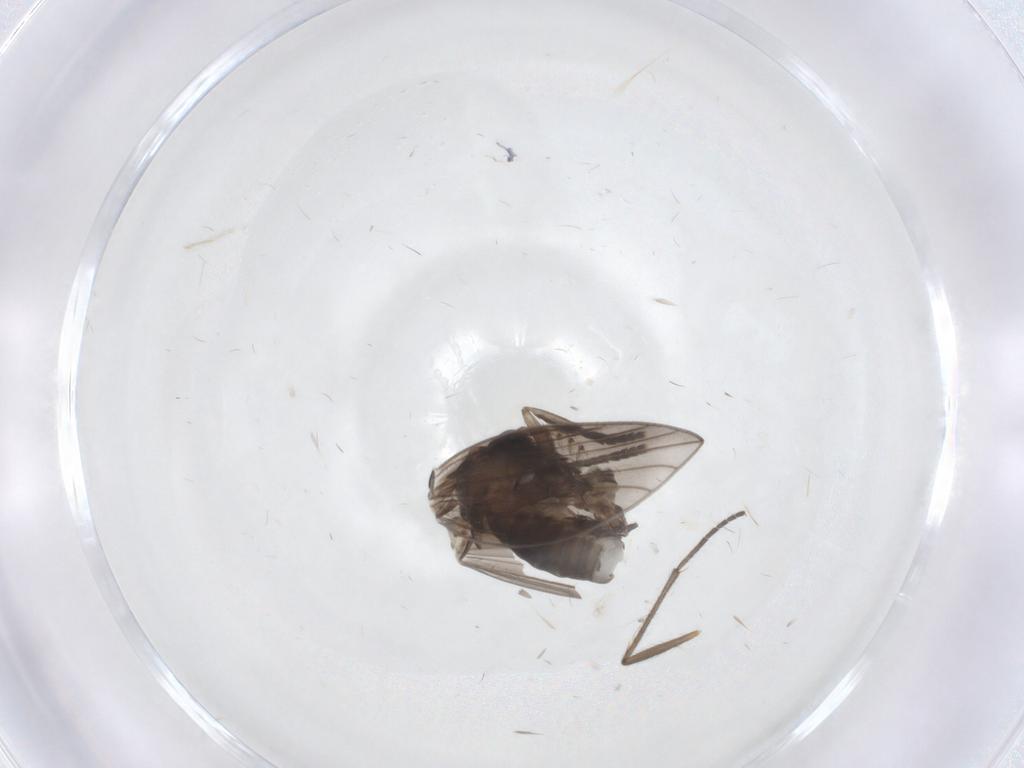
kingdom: Animalia
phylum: Arthropoda
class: Insecta
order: Diptera
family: Psychodidae
